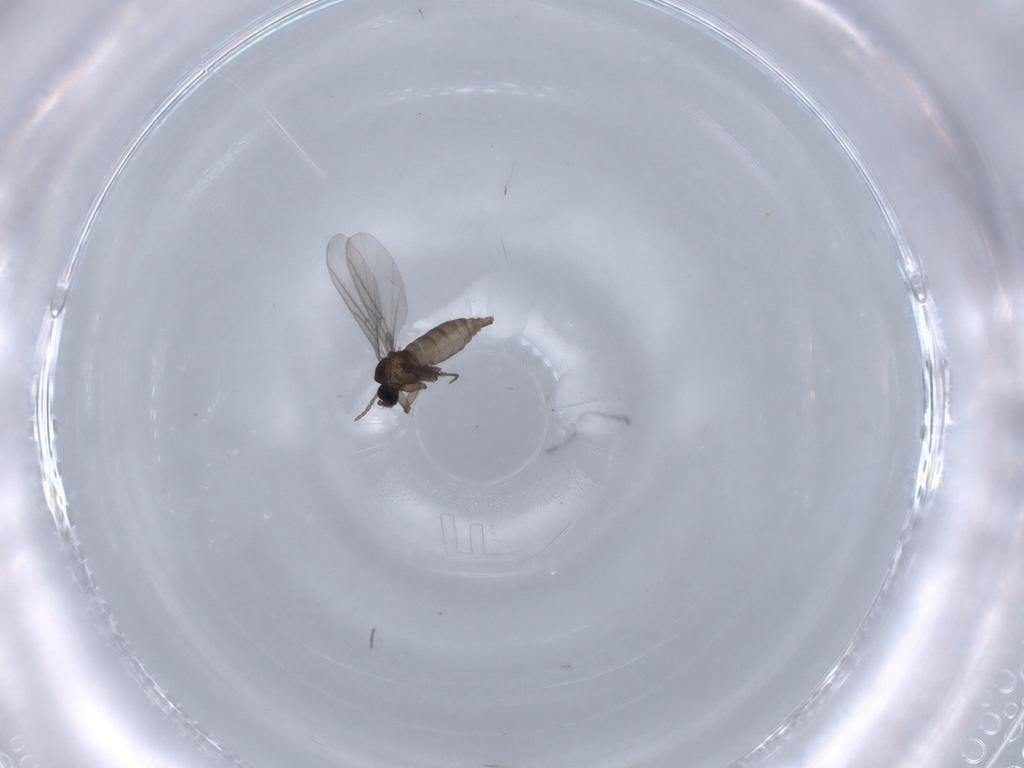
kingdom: Animalia
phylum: Arthropoda
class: Insecta
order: Diptera
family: Sciaridae
